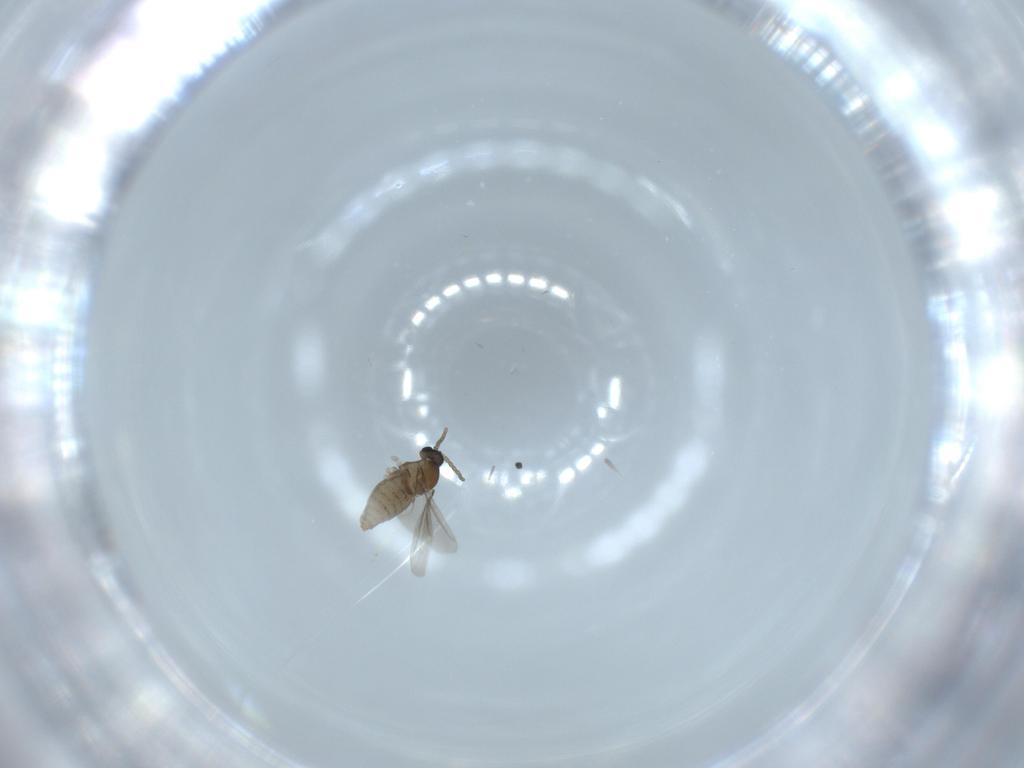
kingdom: Animalia
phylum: Arthropoda
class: Insecta
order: Diptera
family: Cecidomyiidae
